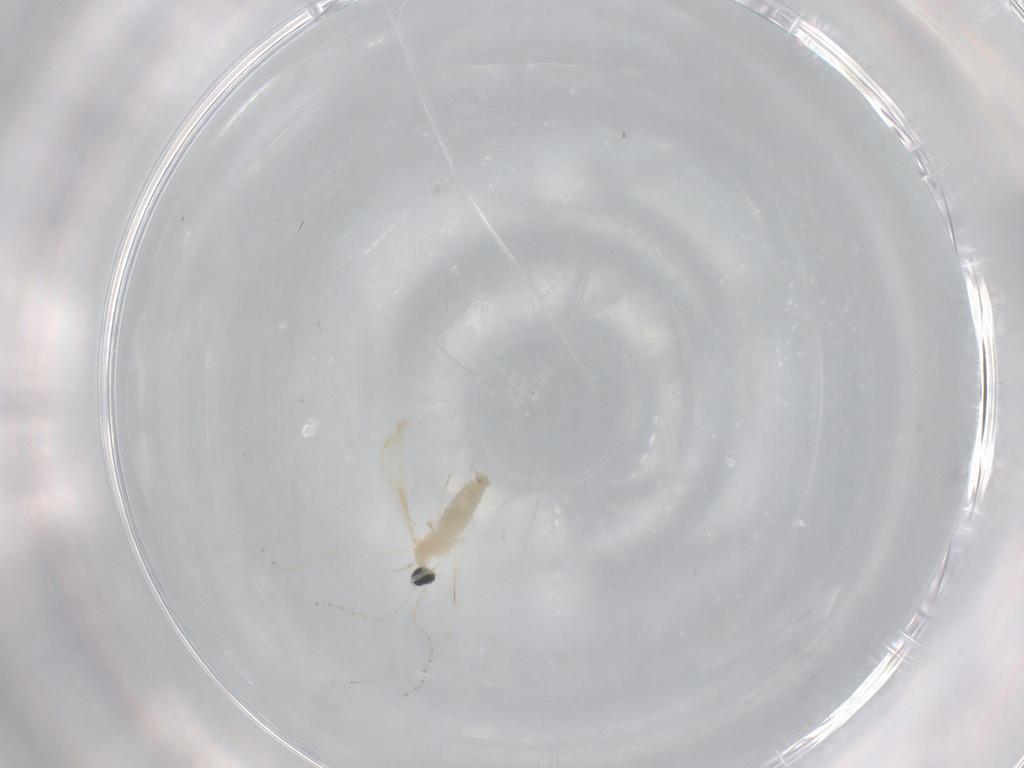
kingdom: Animalia
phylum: Arthropoda
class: Insecta
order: Diptera
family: Cecidomyiidae
